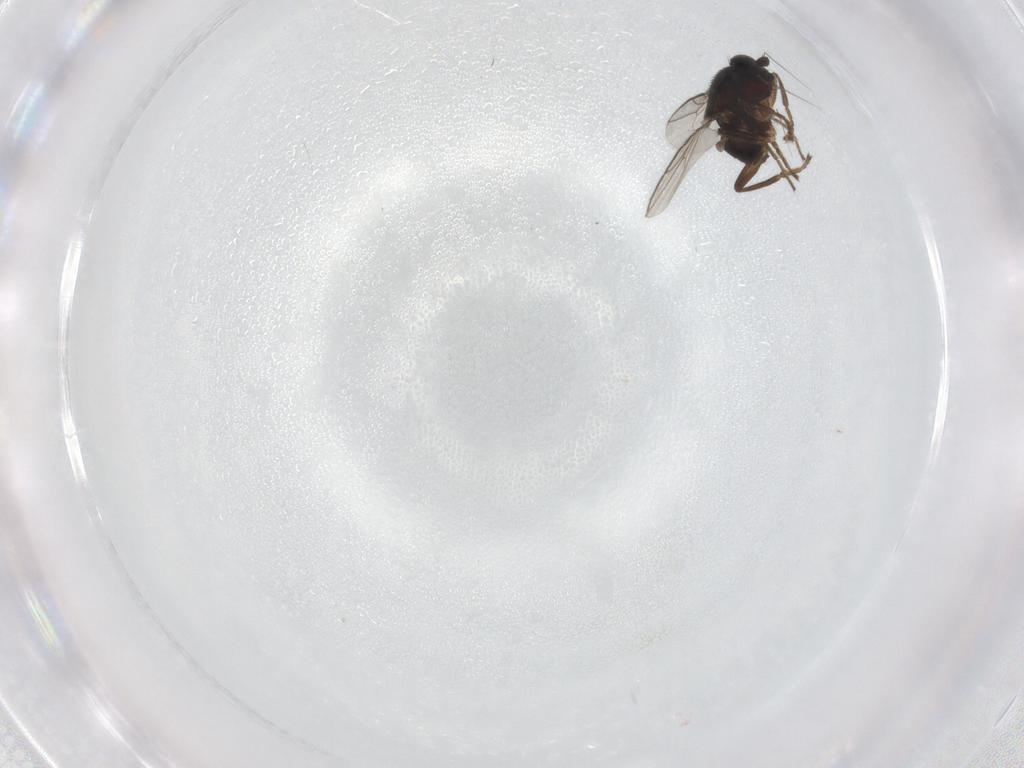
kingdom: Animalia
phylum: Arthropoda
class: Insecta
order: Diptera
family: Sphaeroceridae
